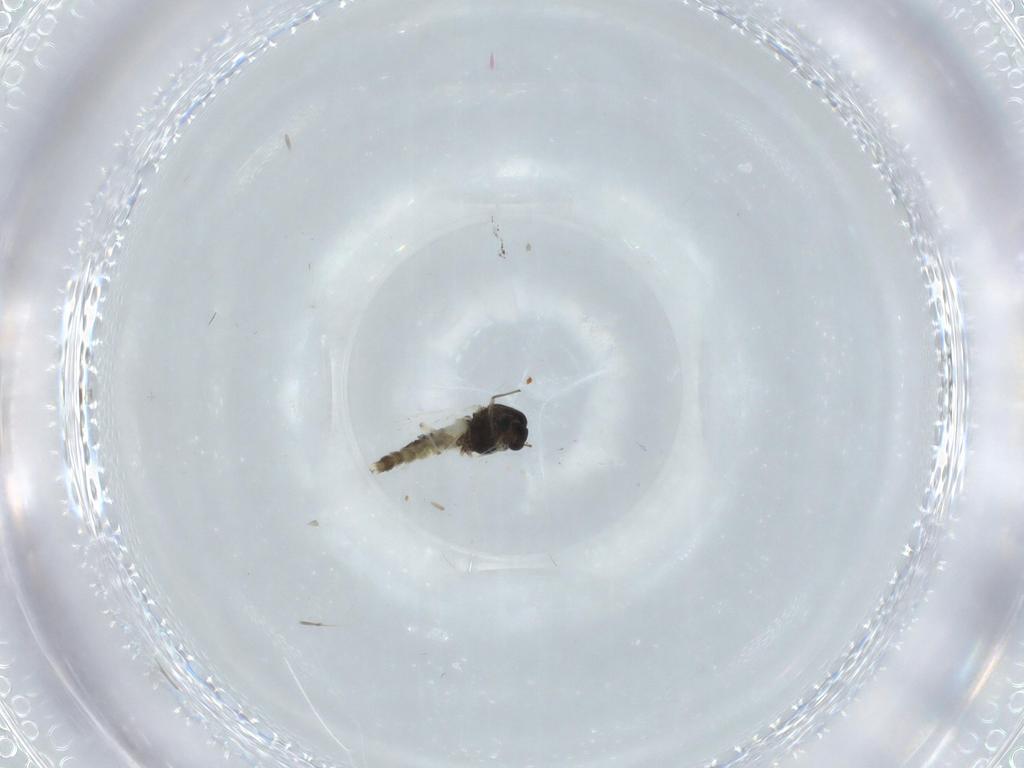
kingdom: Animalia
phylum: Arthropoda
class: Insecta
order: Diptera
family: Chironomidae
